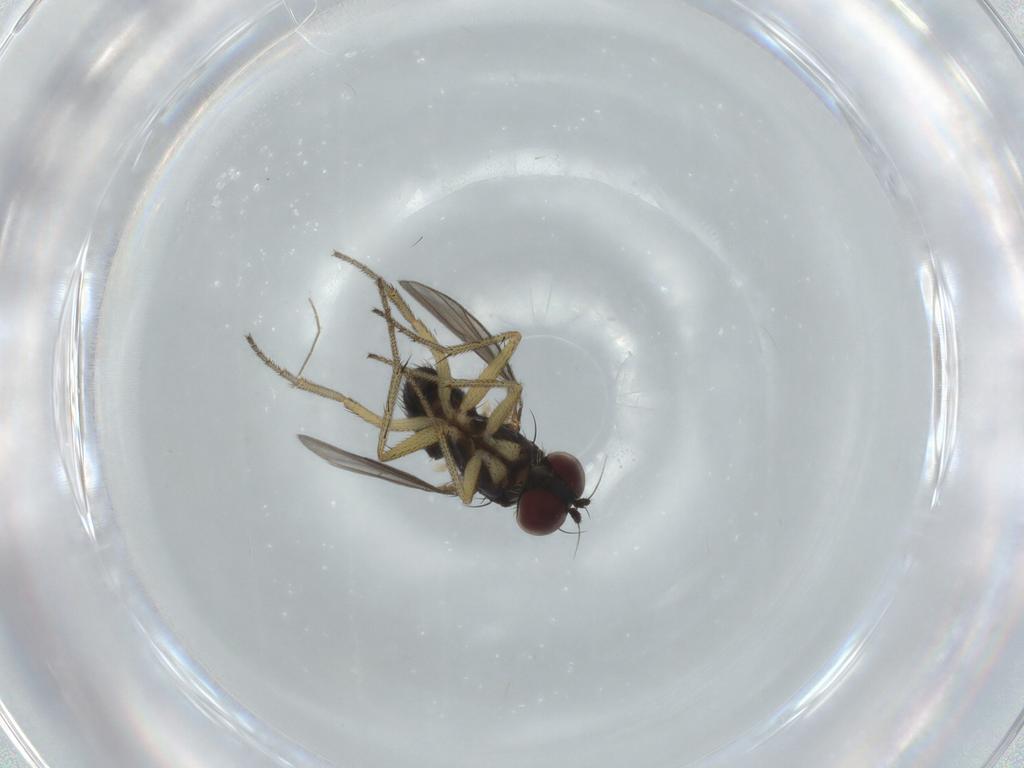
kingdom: Animalia
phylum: Arthropoda
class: Insecta
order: Diptera
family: Dolichopodidae
